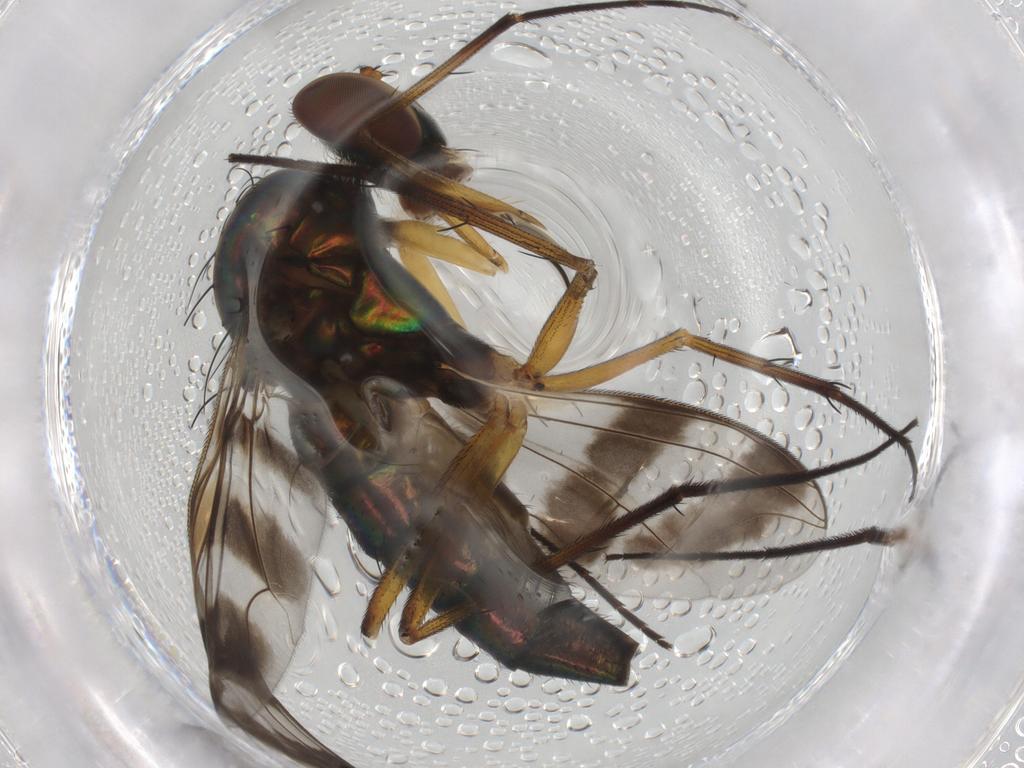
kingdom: Animalia
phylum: Arthropoda
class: Insecta
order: Diptera
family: Dolichopodidae
